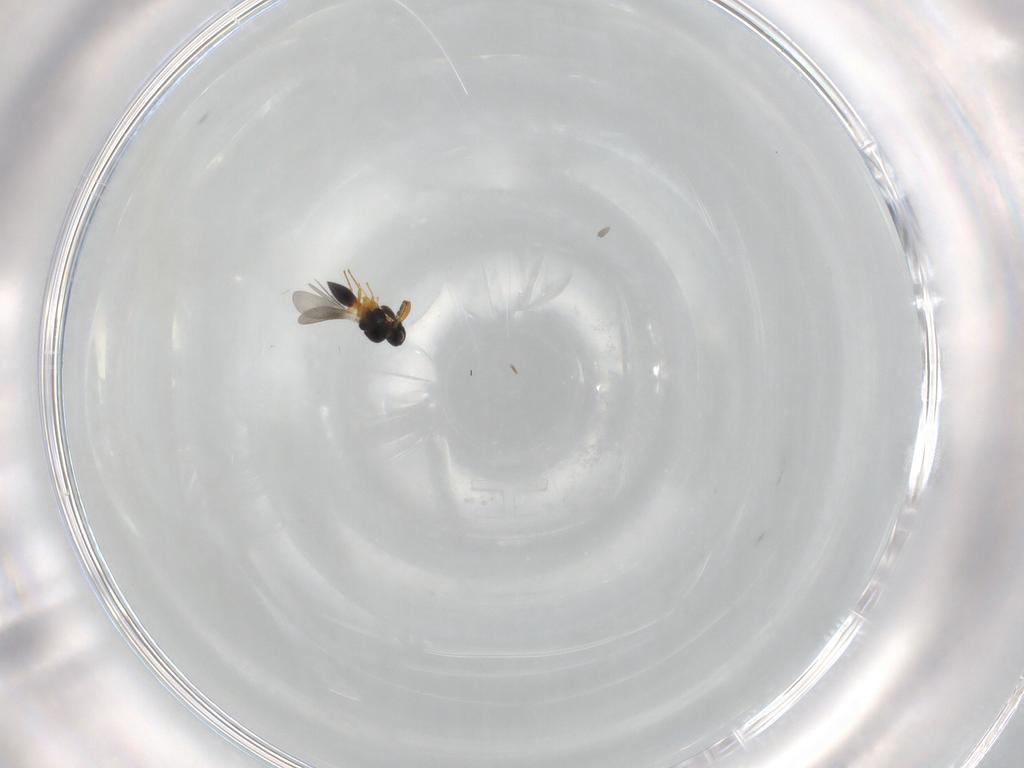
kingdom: Animalia
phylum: Arthropoda
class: Insecta
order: Hymenoptera
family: Platygastridae
